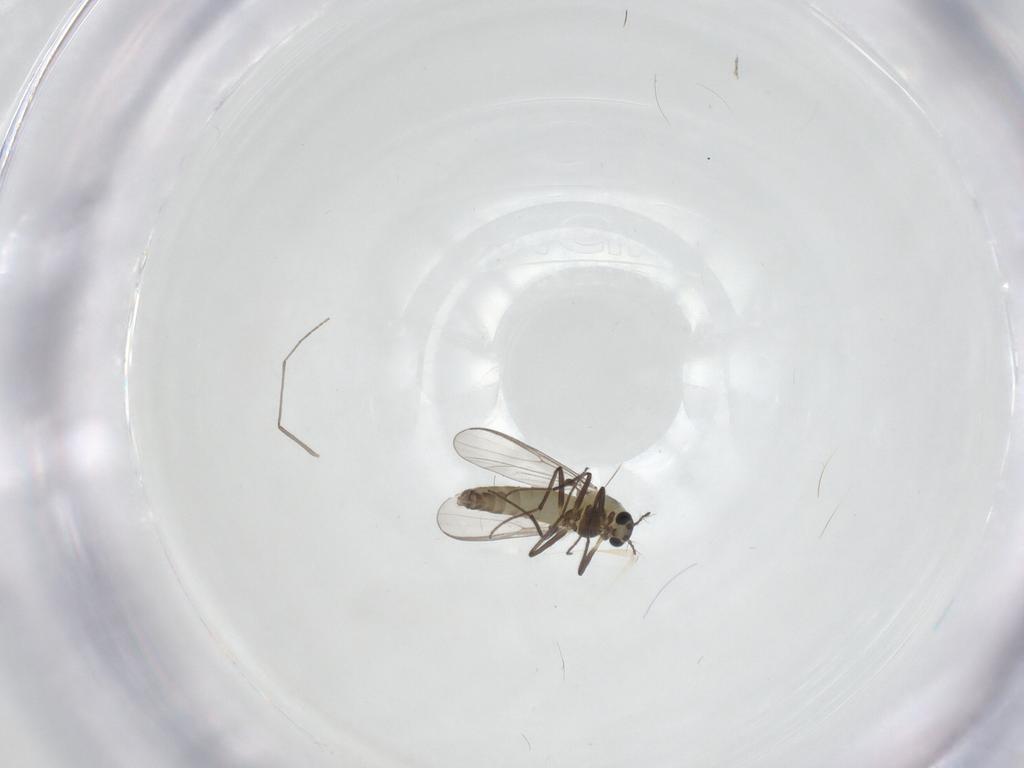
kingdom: Animalia
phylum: Arthropoda
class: Insecta
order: Diptera
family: Chironomidae
